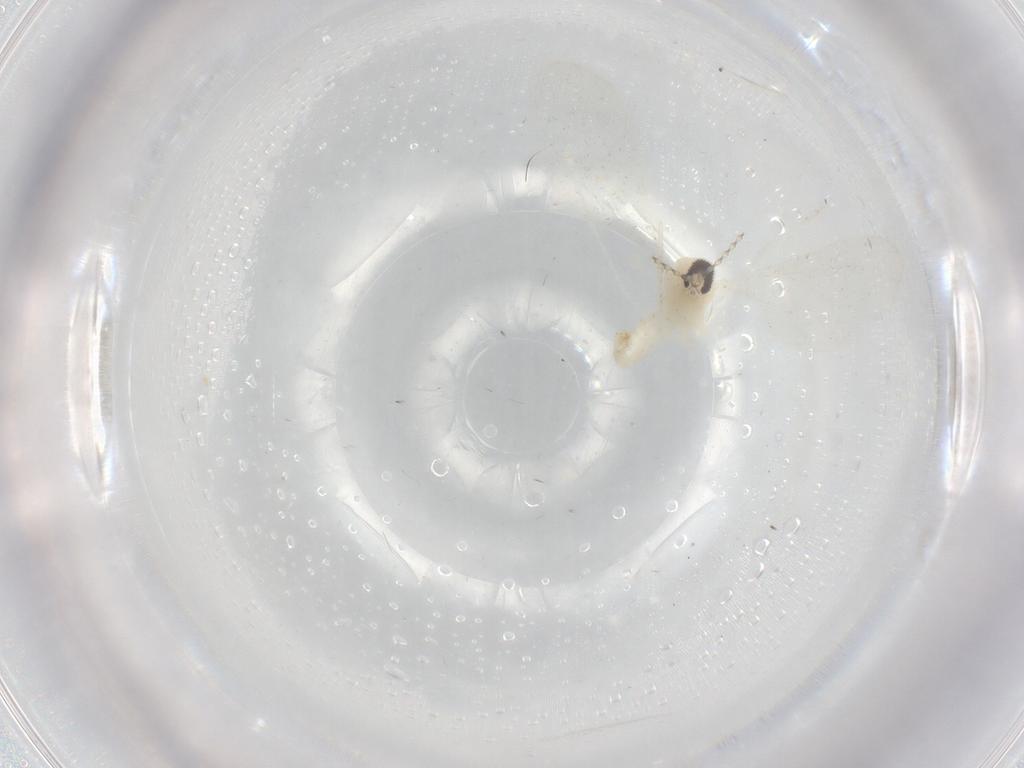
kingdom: Animalia
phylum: Arthropoda
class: Insecta
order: Diptera
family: Cecidomyiidae
